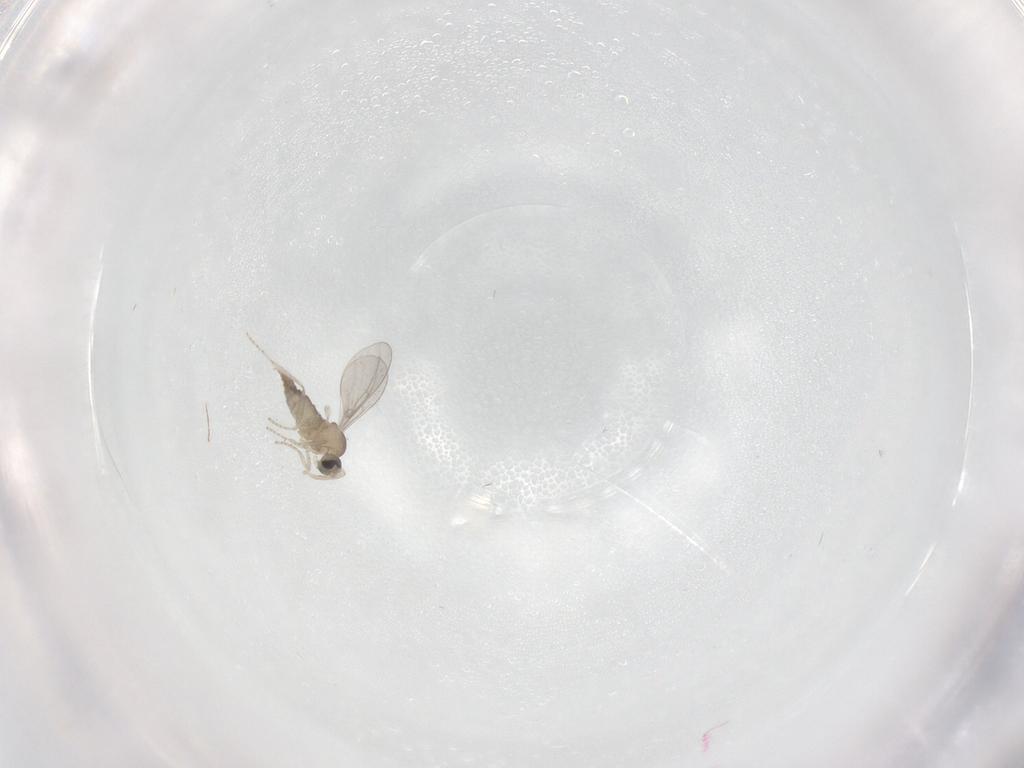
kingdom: Animalia
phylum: Arthropoda
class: Insecta
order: Diptera
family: Cecidomyiidae
